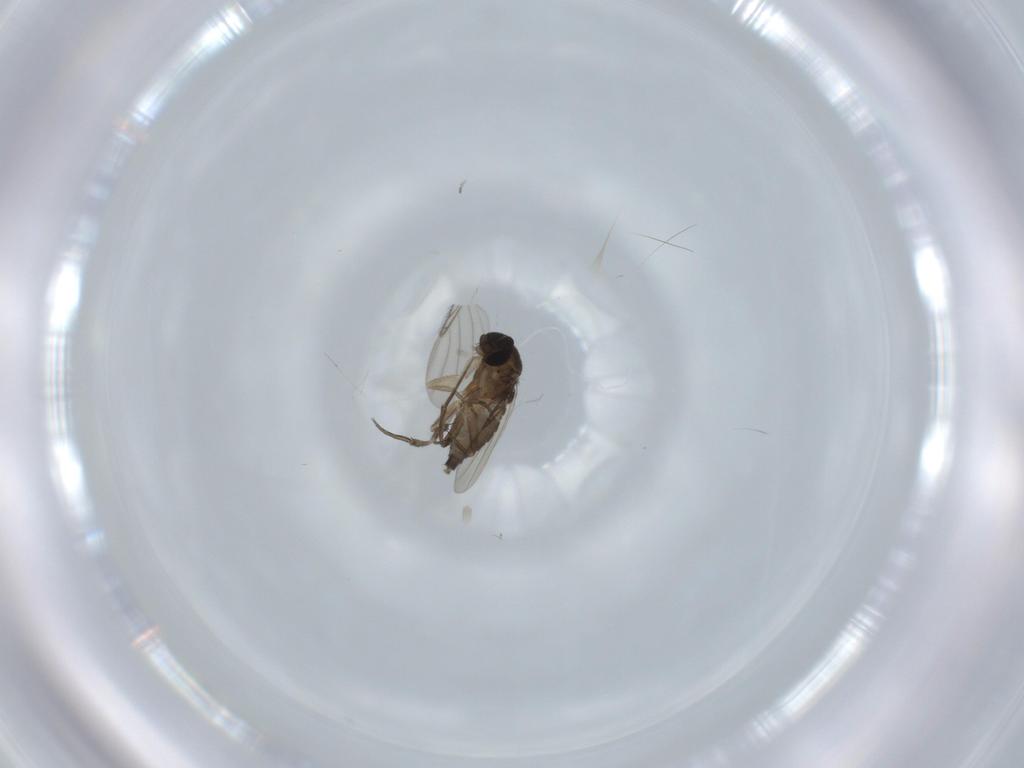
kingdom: Animalia
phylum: Arthropoda
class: Insecta
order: Diptera
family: Phoridae
